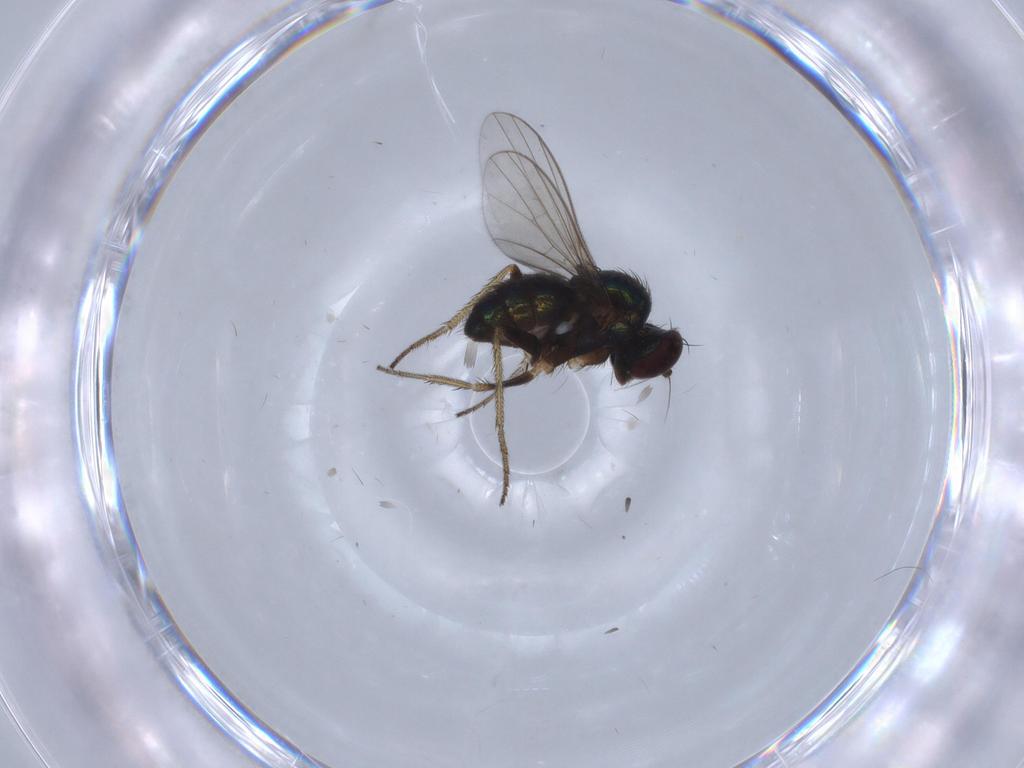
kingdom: Animalia
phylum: Arthropoda
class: Insecta
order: Diptera
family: Dolichopodidae
